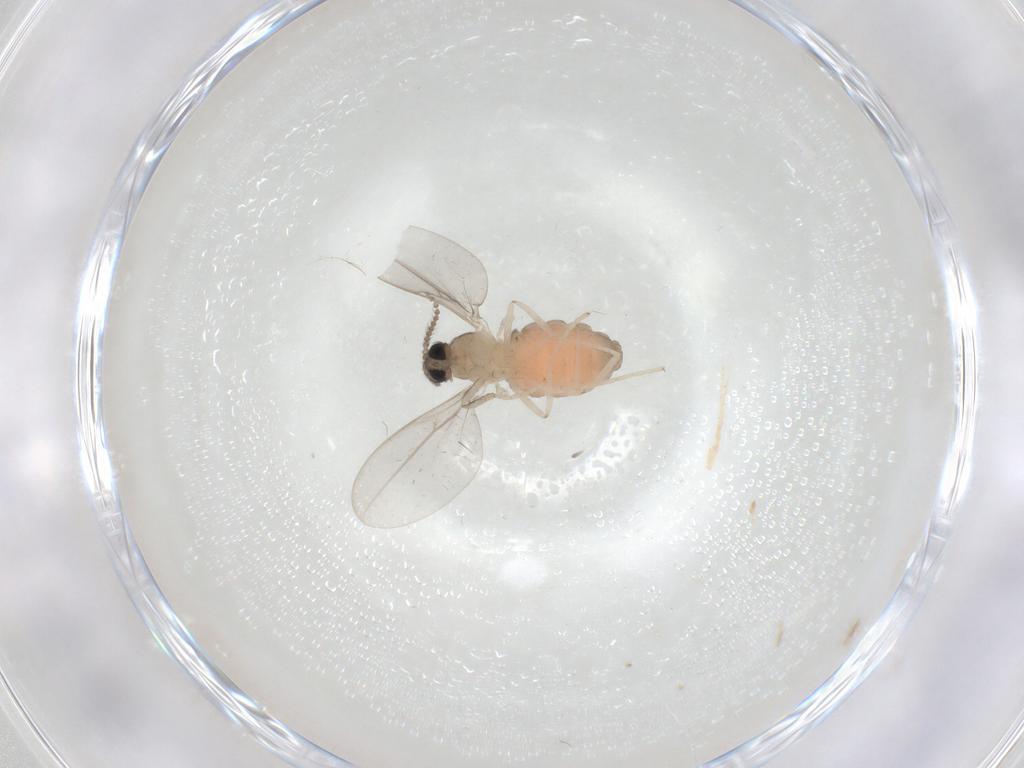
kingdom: Animalia
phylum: Arthropoda
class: Insecta
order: Diptera
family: Cecidomyiidae
